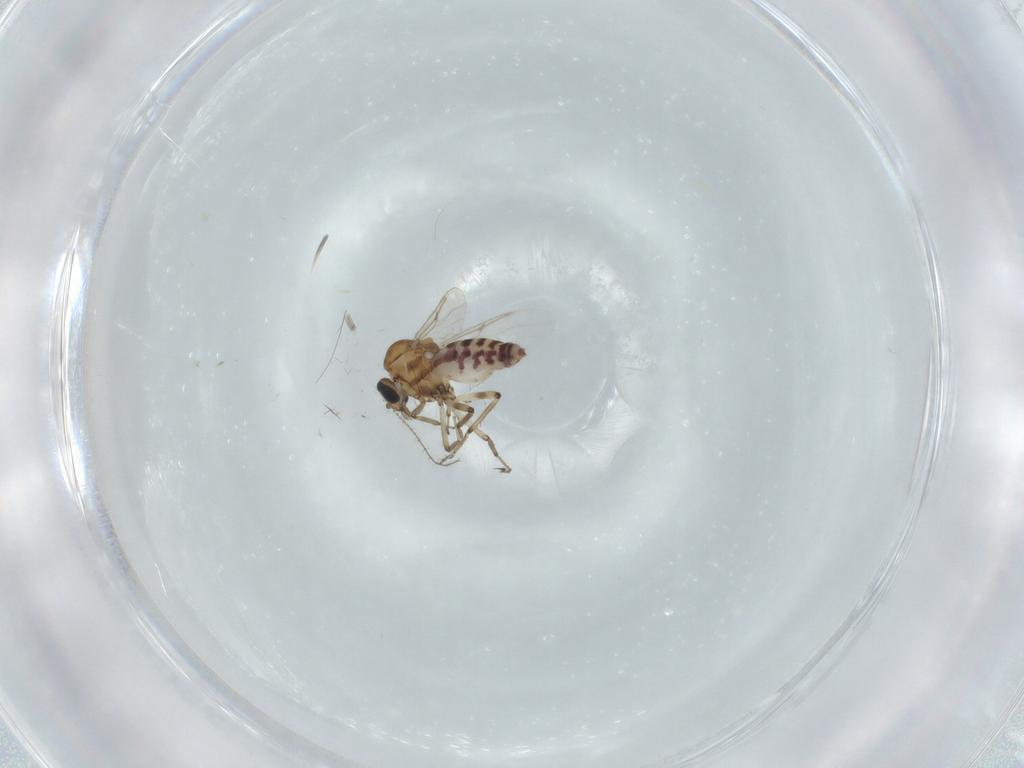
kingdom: Animalia
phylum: Arthropoda
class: Insecta
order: Diptera
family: Ceratopogonidae
